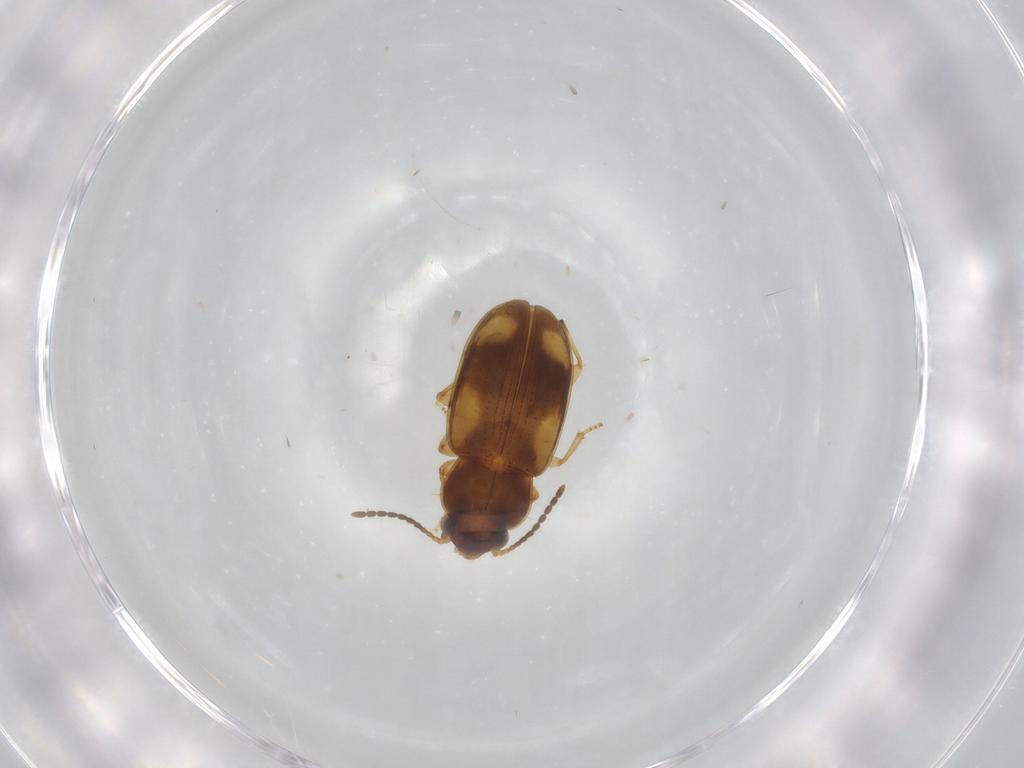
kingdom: Animalia
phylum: Arthropoda
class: Insecta
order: Coleoptera
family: Carabidae
